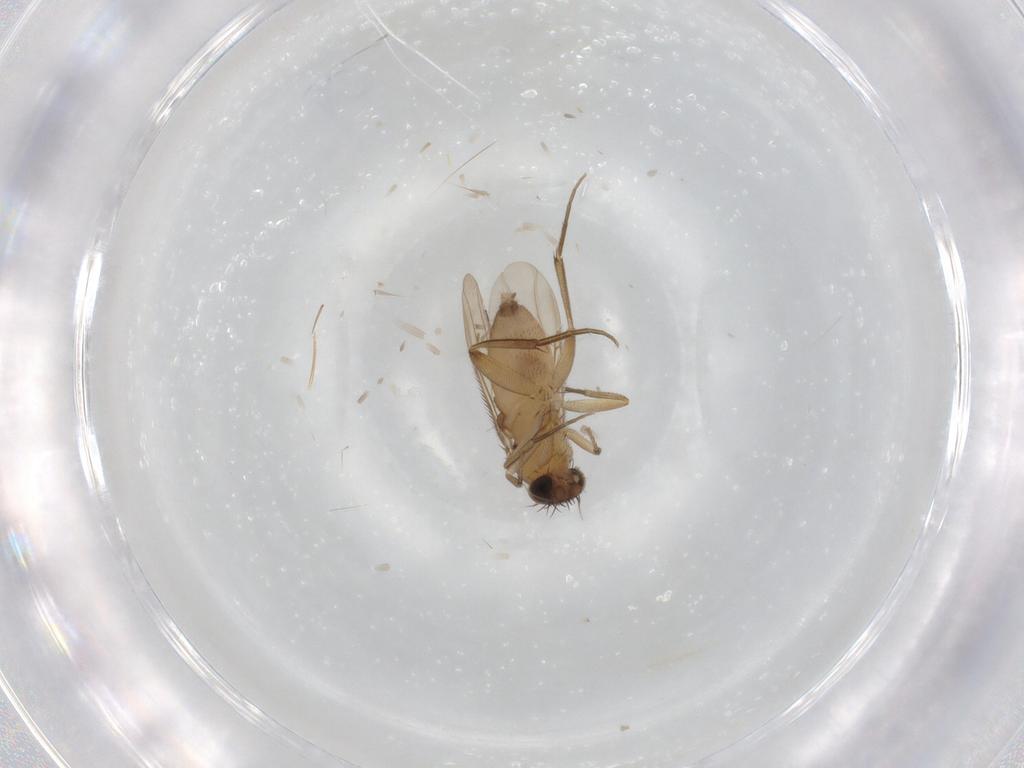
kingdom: Animalia
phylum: Arthropoda
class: Insecta
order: Diptera
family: Phoridae
